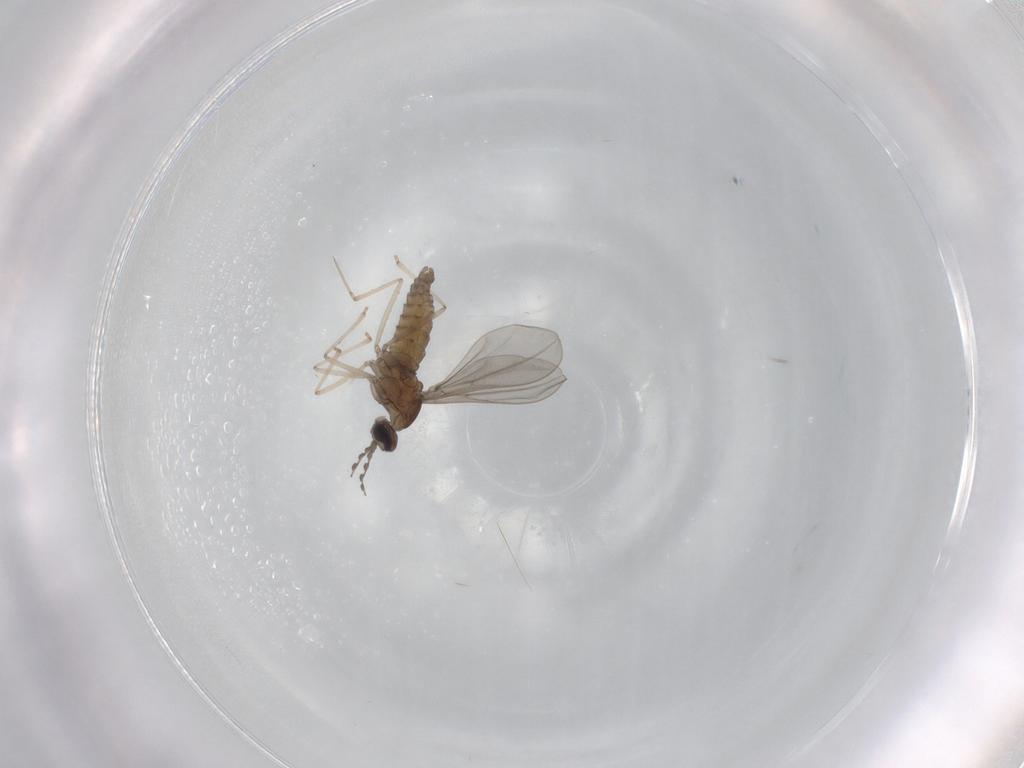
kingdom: Animalia
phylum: Arthropoda
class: Insecta
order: Diptera
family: Cecidomyiidae
